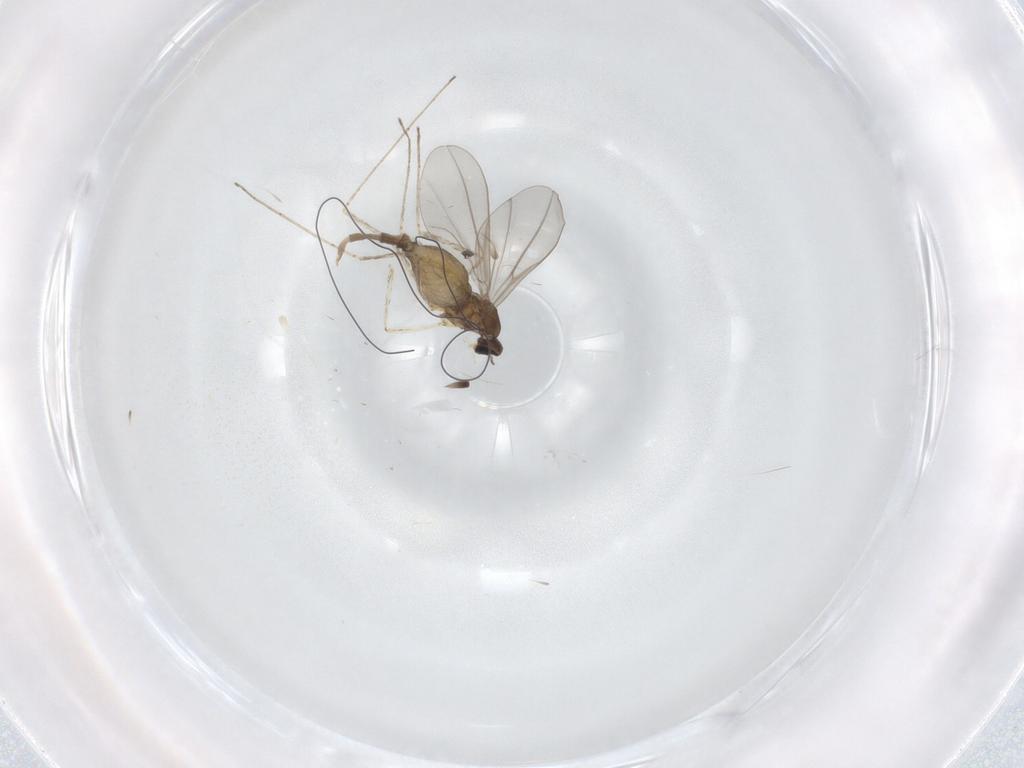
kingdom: Animalia
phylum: Arthropoda
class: Insecta
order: Diptera
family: Cecidomyiidae
